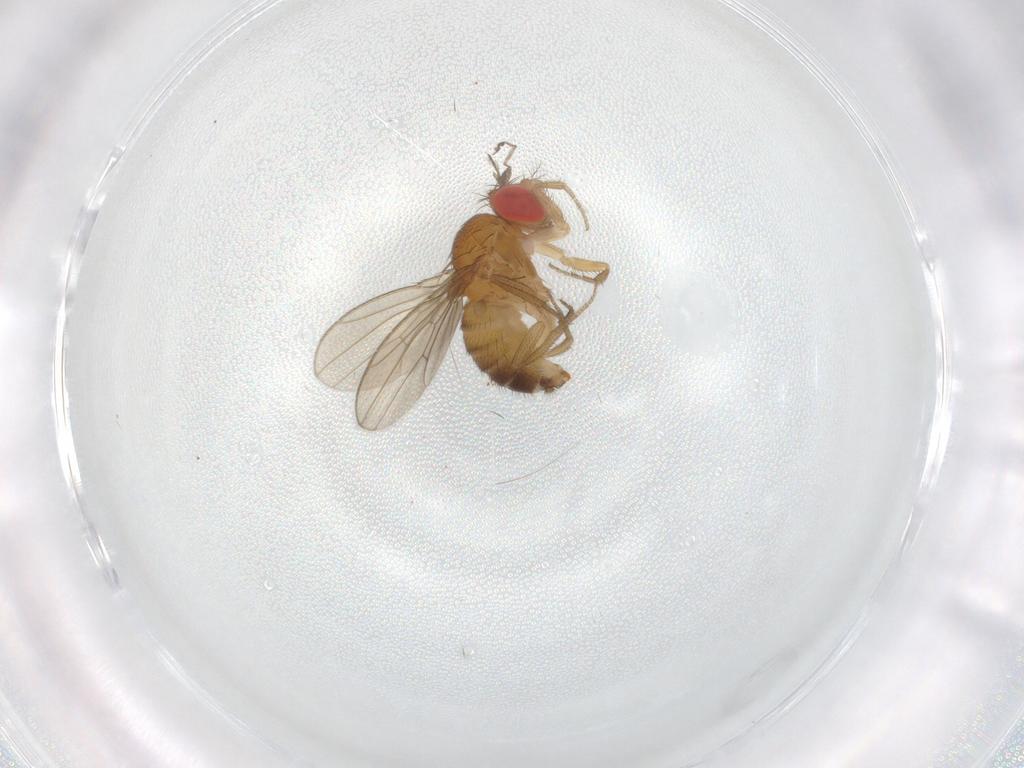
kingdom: Animalia
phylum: Arthropoda
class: Insecta
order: Diptera
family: Drosophilidae
